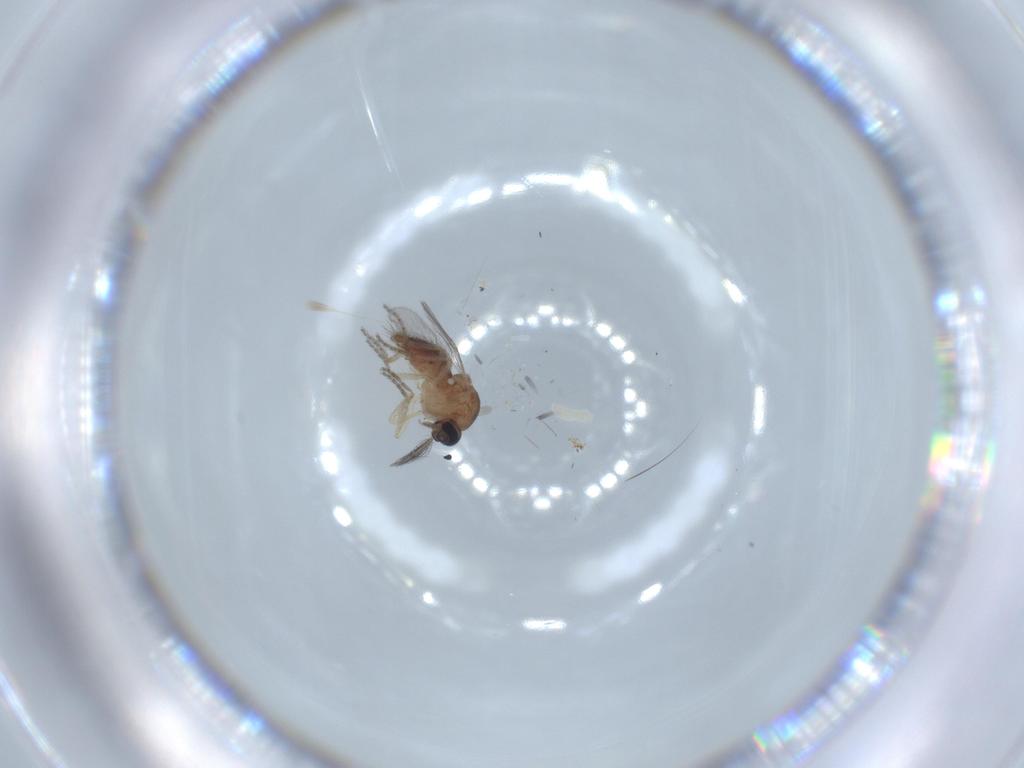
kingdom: Animalia
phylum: Arthropoda
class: Insecta
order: Diptera
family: Ceratopogonidae
